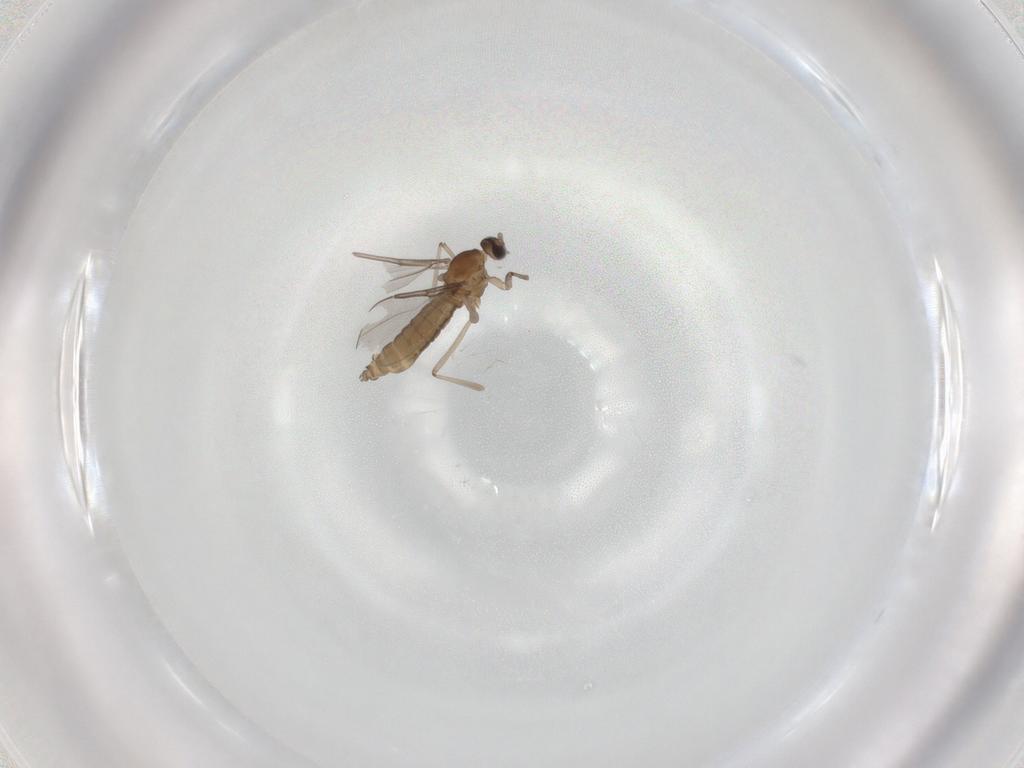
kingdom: Animalia
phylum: Arthropoda
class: Insecta
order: Diptera
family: Cecidomyiidae
